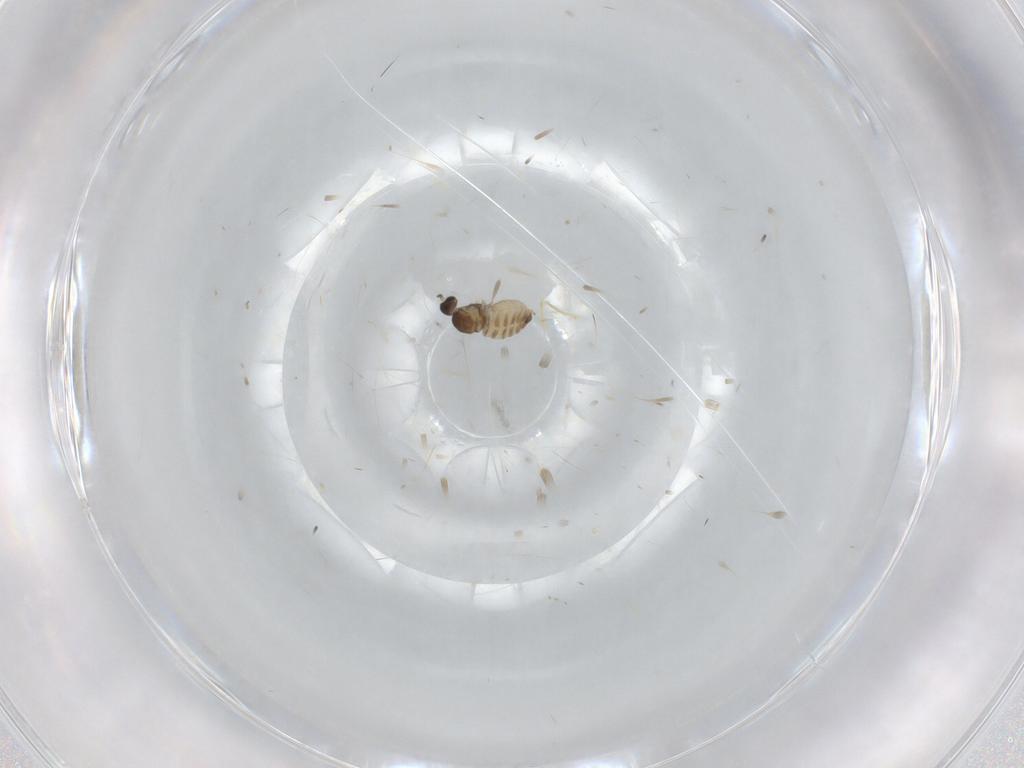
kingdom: Animalia
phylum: Arthropoda
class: Insecta
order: Diptera
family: Cecidomyiidae
